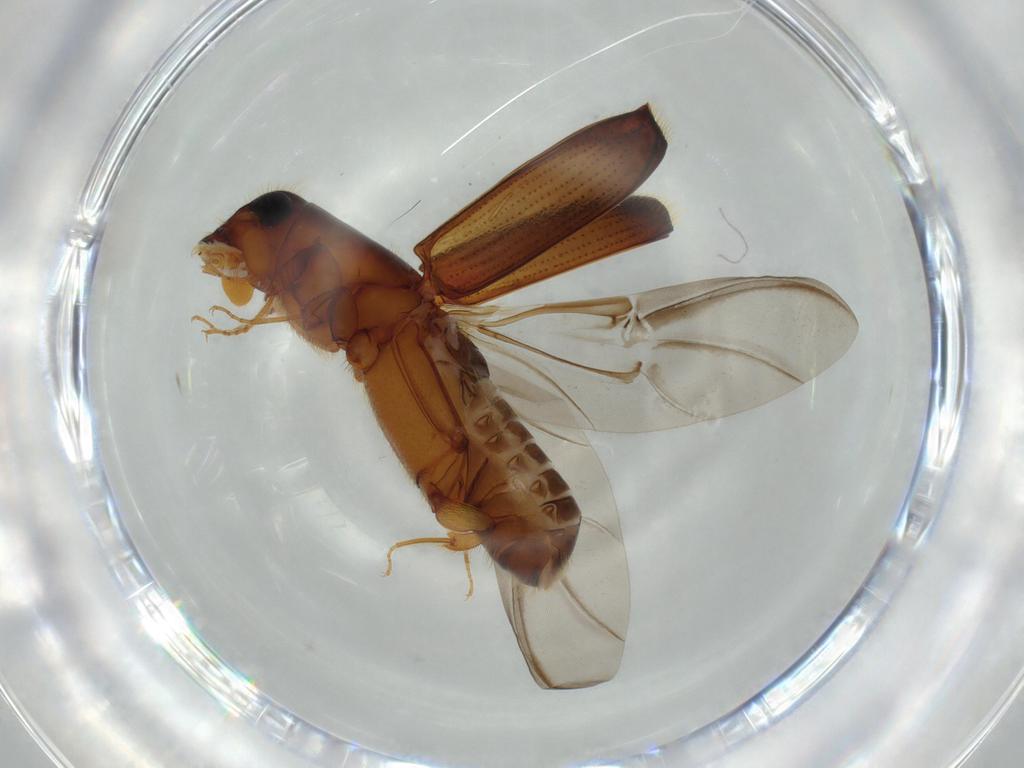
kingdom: Animalia
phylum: Arthropoda
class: Insecta
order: Coleoptera
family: Curculionidae
